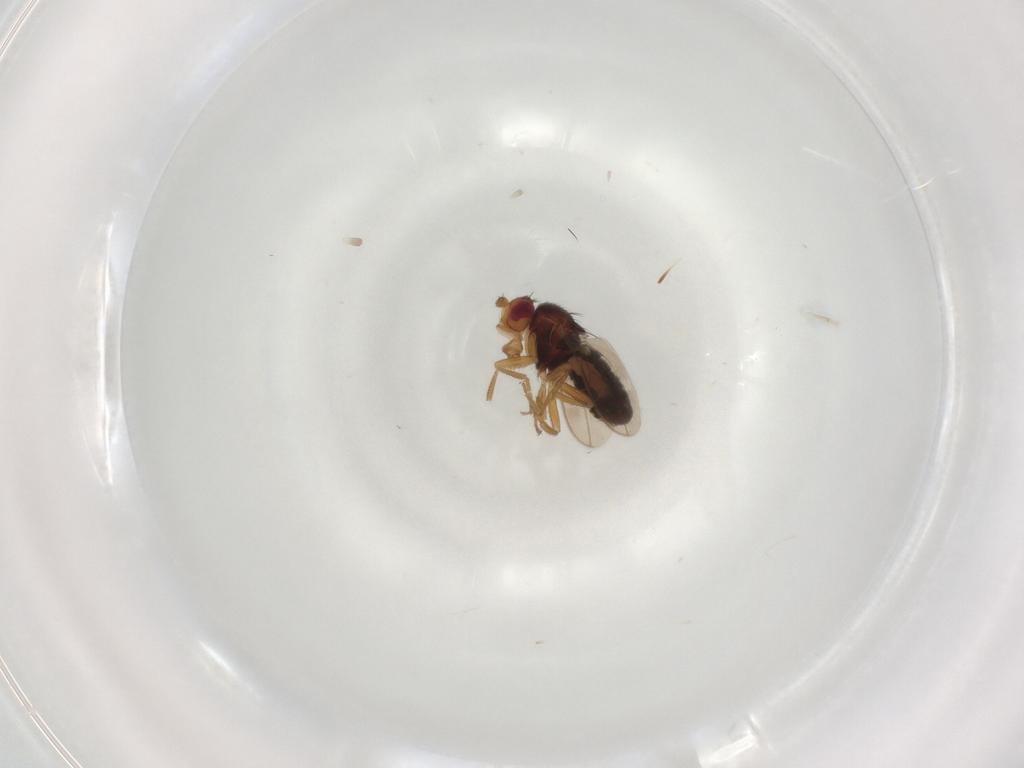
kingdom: Animalia
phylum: Arthropoda
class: Insecta
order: Diptera
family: Sphaeroceridae
